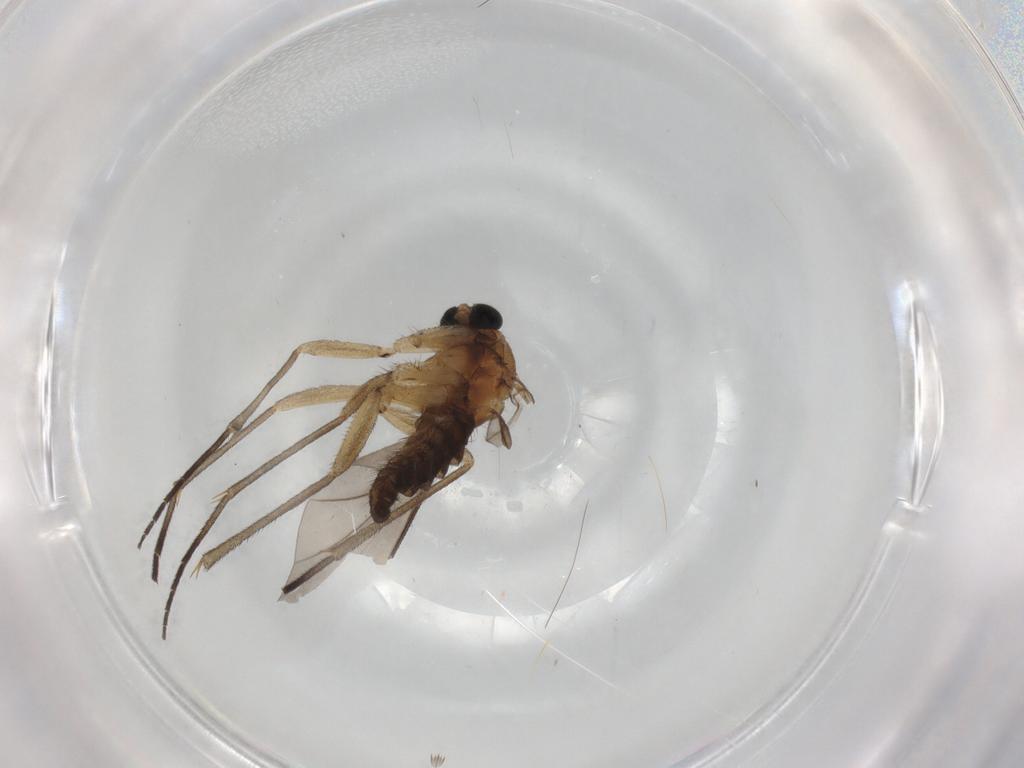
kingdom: Animalia
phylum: Arthropoda
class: Insecta
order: Diptera
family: Sciaridae
